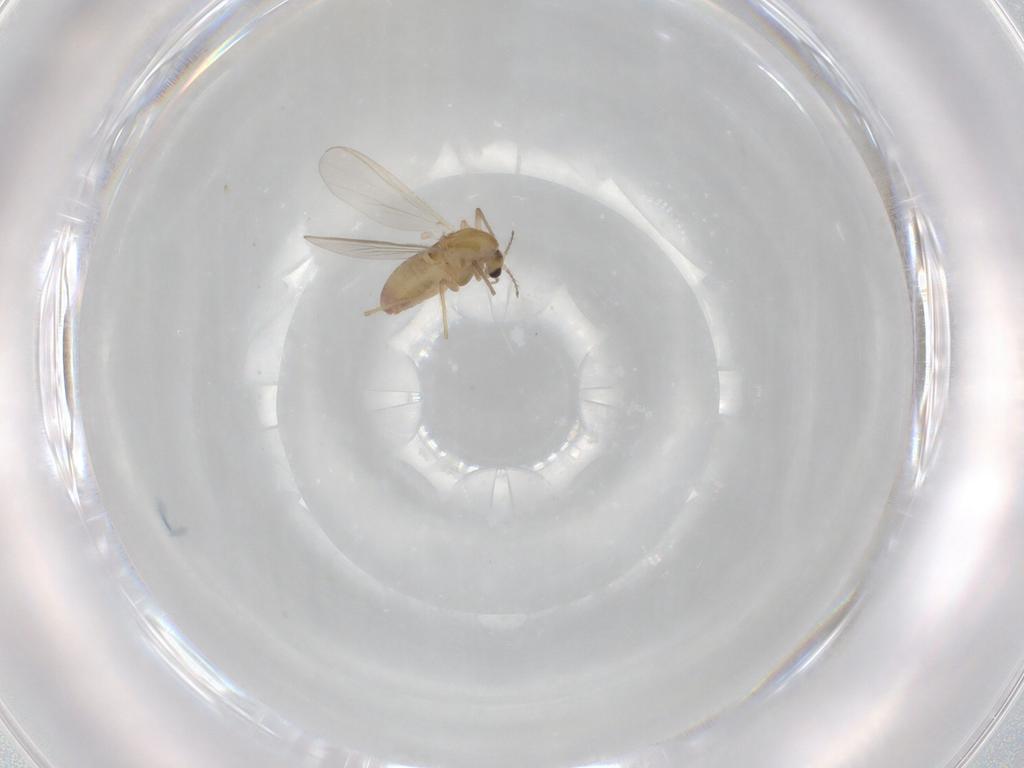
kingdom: Animalia
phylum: Arthropoda
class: Insecta
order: Diptera
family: Chironomidae
